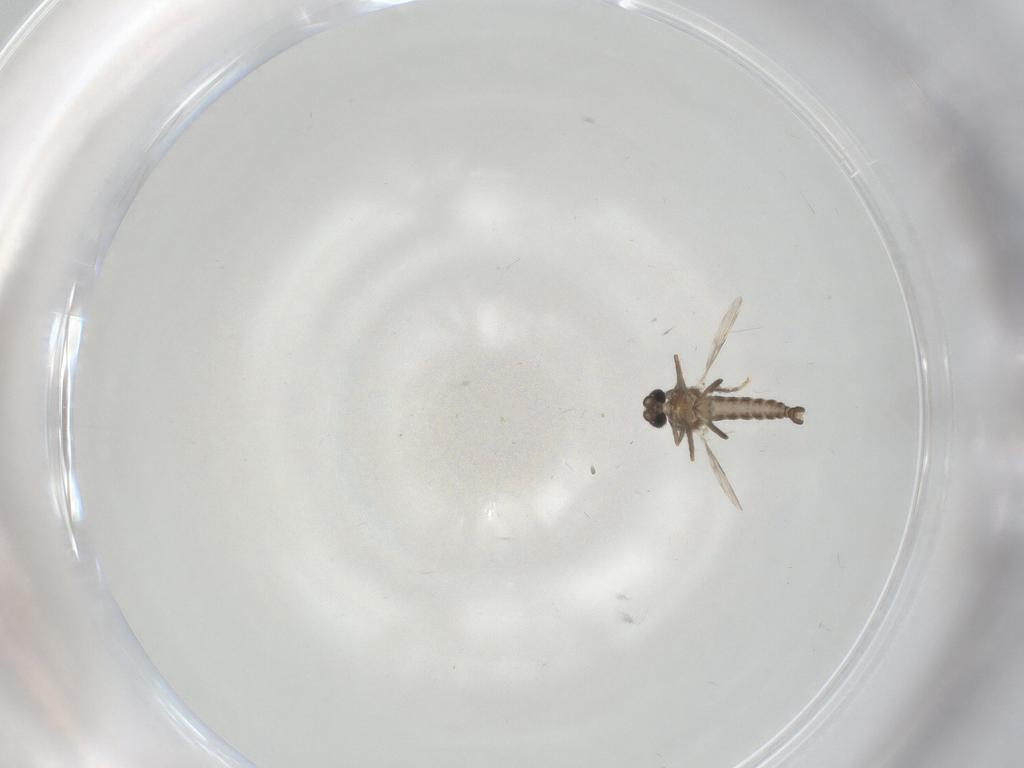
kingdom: Animalia
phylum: Arthropoda
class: Insecta
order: Diptera
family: Ceratopogonidae
